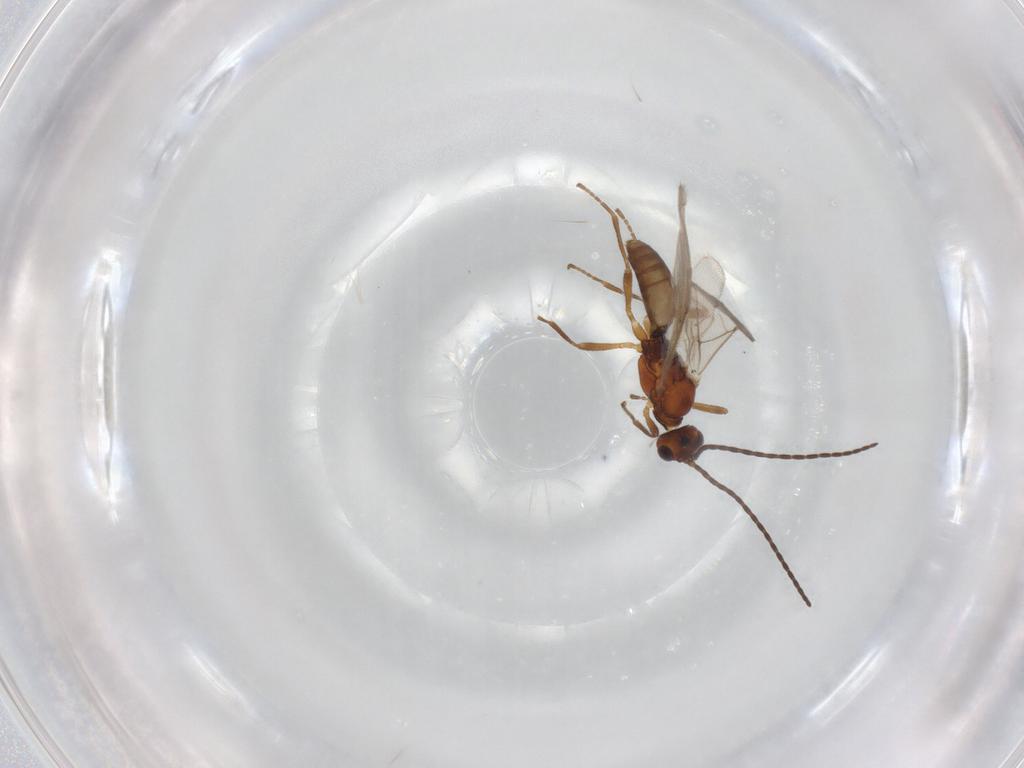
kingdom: Animalia
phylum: Arthropoda
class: Insecta
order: Hymenoptera
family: Braconidae
